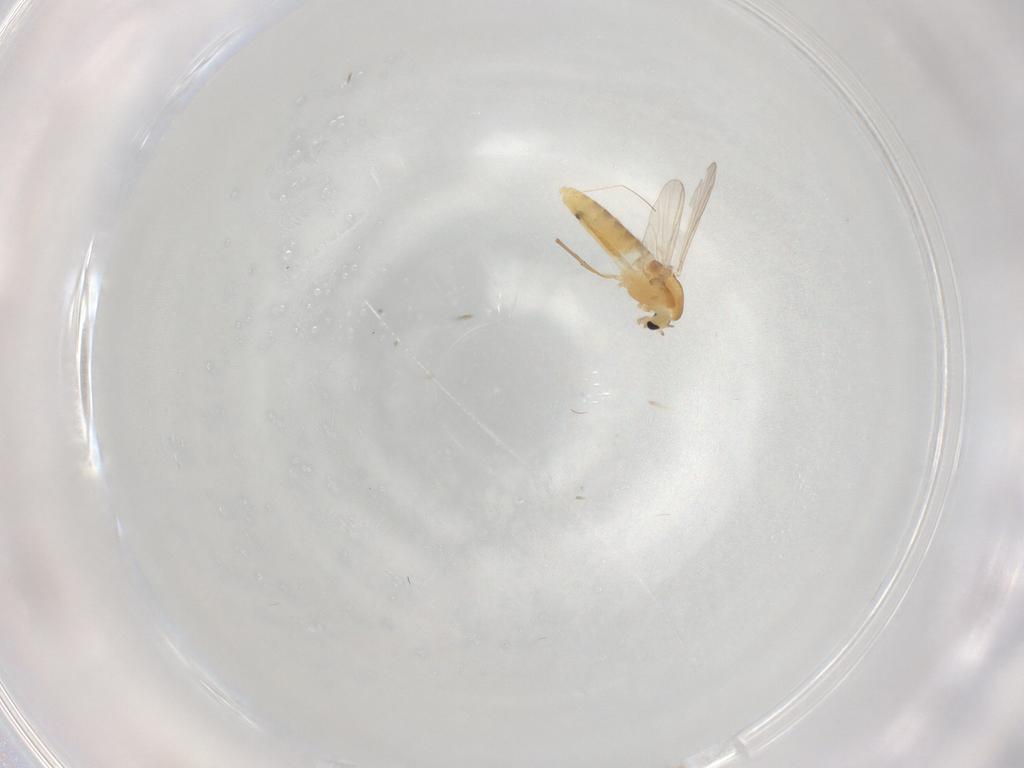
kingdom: Animalia
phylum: Arthropoda
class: Insecta
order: Diptera
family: Chironomidae
